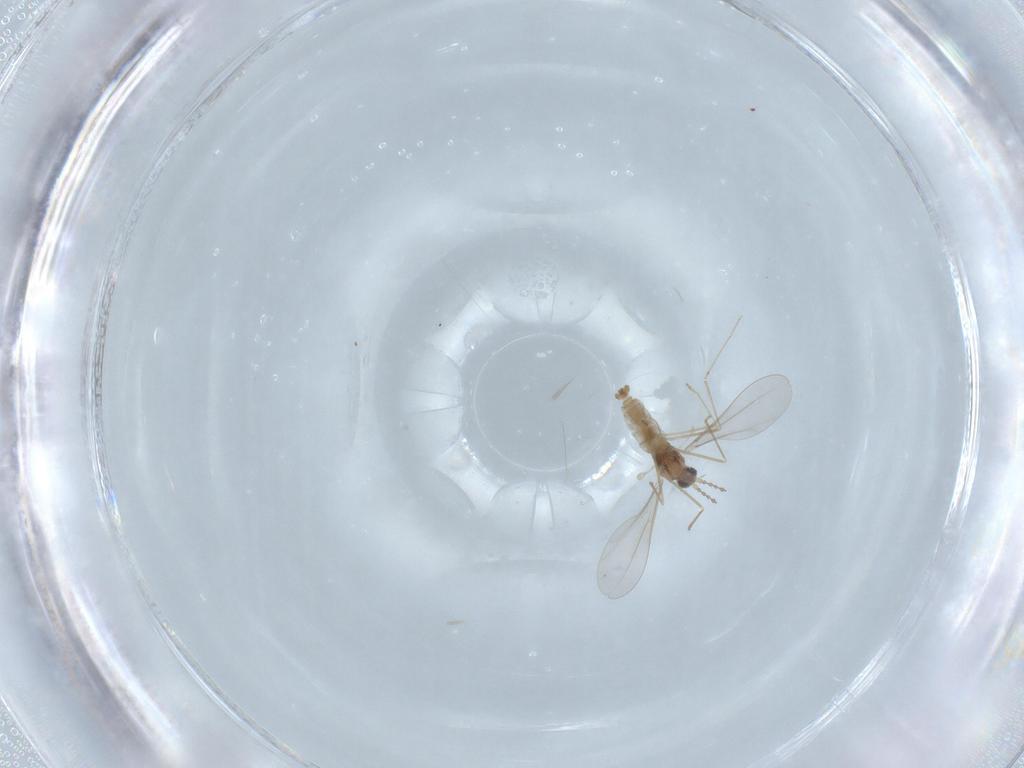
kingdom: Animalia
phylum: Arthropoda
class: Insecta
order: Diptera
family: Cecidomyiidae
